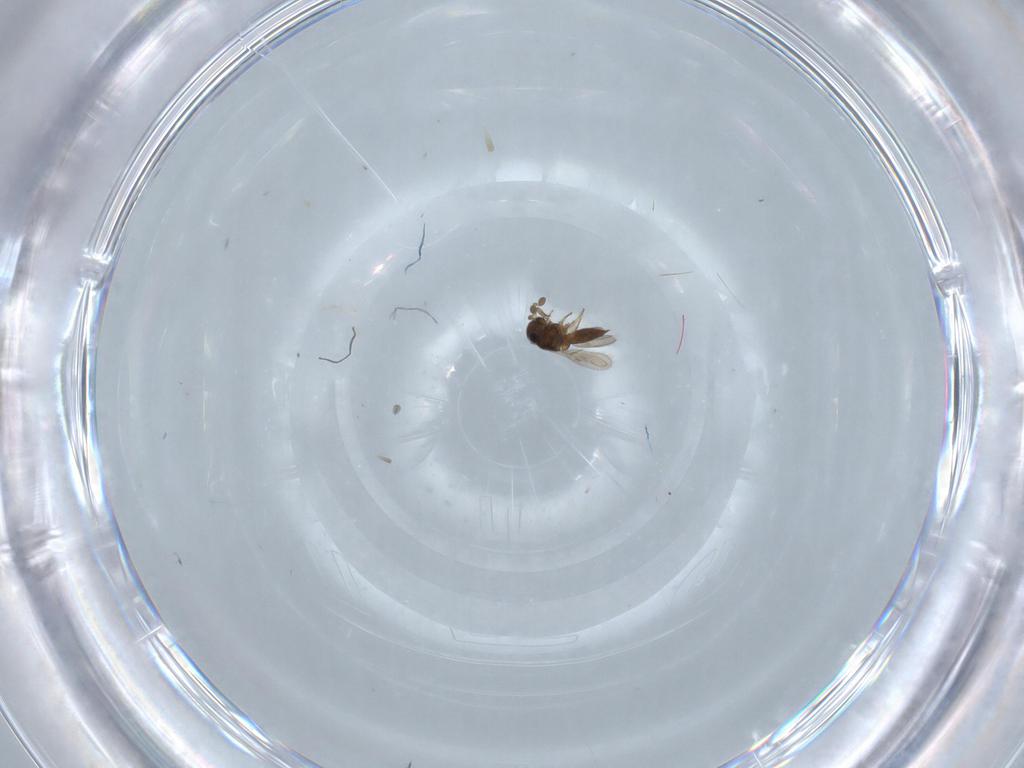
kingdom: Animalia
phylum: Arthropoda
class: Insecta
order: Hymenoptera
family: Scelionidae
